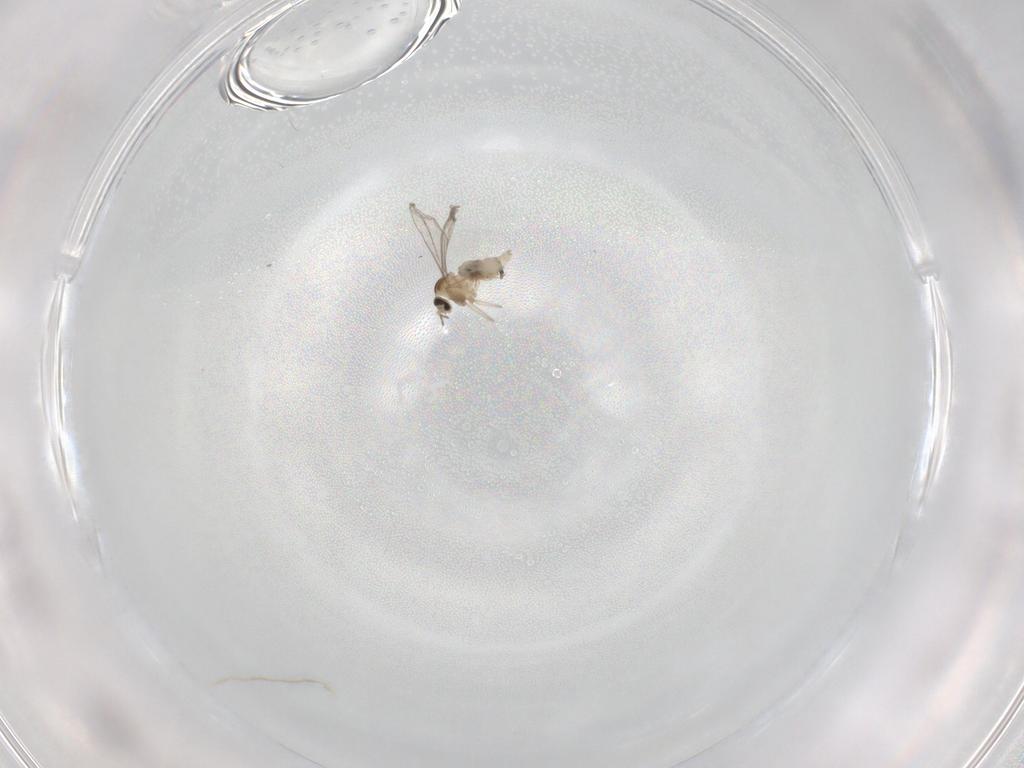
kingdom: Animalia
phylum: Arthropoda
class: Insecta
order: Diptera
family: Cecidomyiidae
